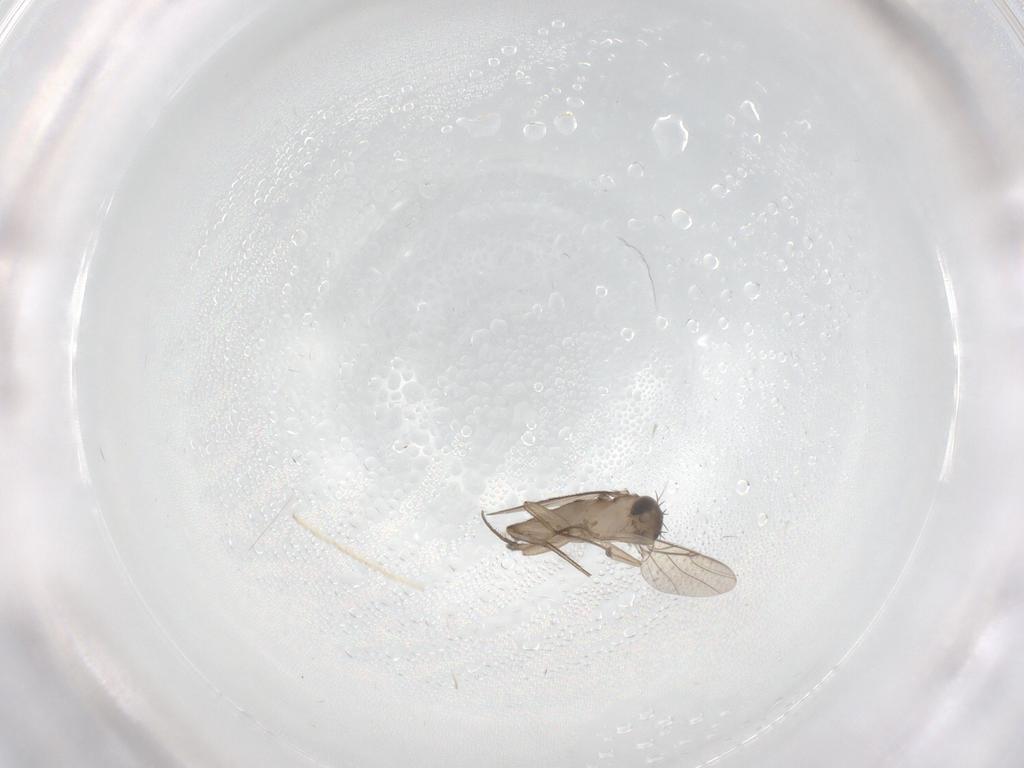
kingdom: Animalia
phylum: Arthropoda
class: Insecta
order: Diptera
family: Phoridae
